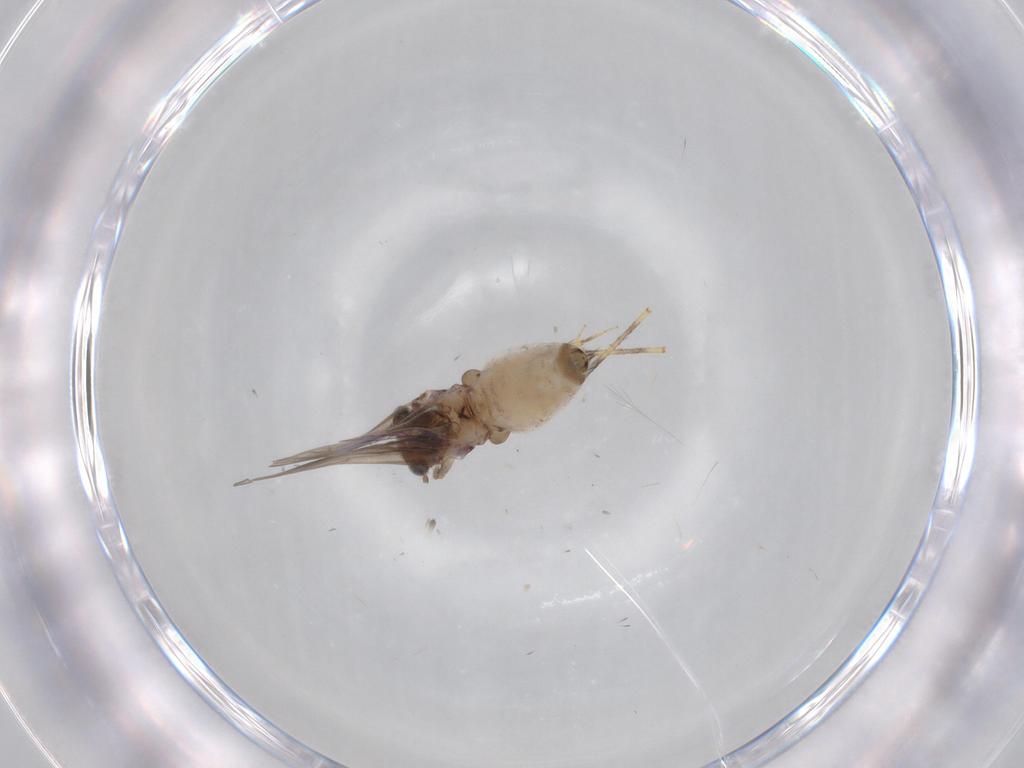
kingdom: Animalia
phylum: Arthropoda
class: Insecta
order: Psocodea
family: Lepidopsocidae
